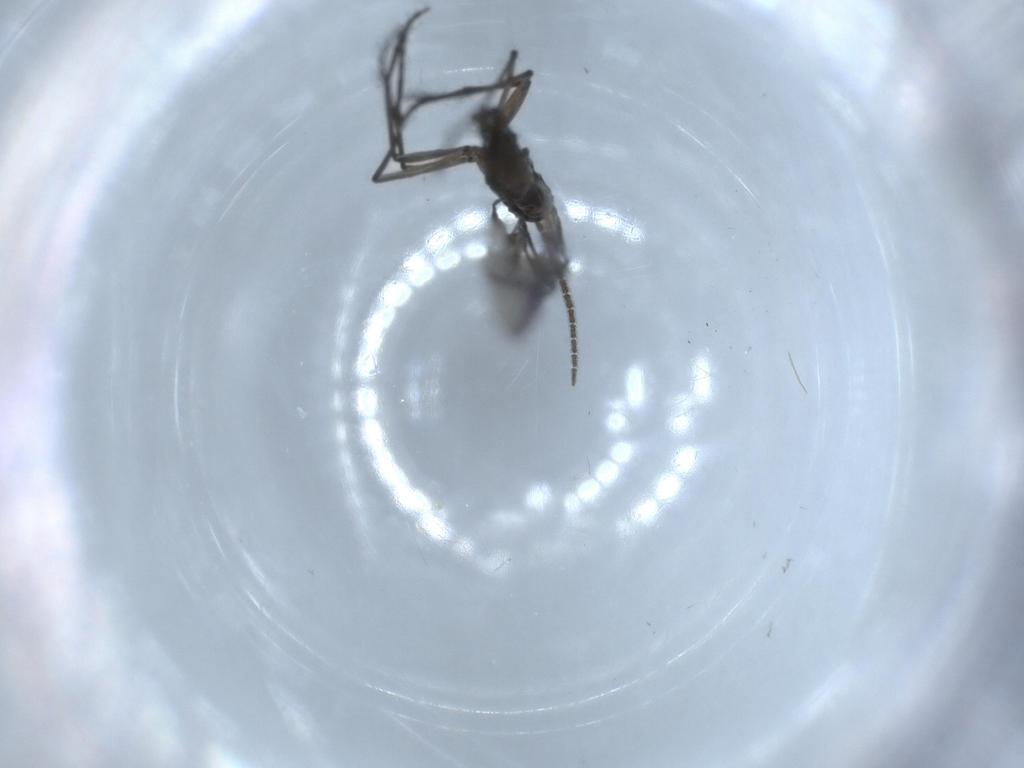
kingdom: Animalia
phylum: Arthropoda
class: Insecta
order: Diptera
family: Sciaridae
